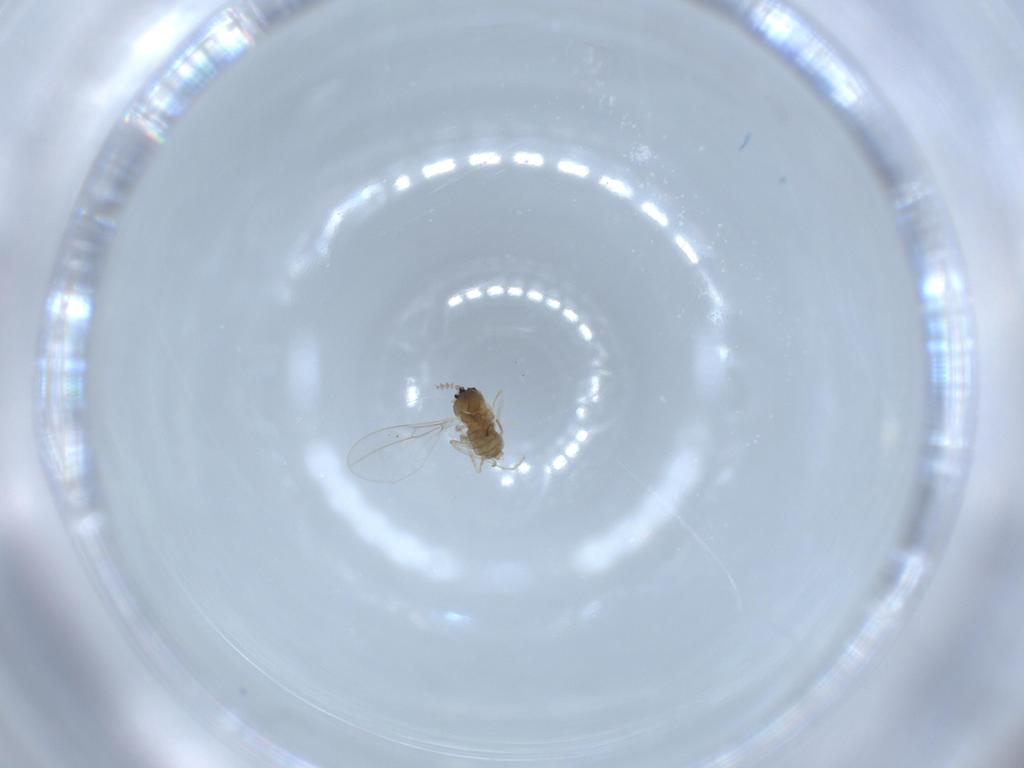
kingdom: Animalia
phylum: Arthropoda
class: Insecta
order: Diptera
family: Cecidomyiidae
